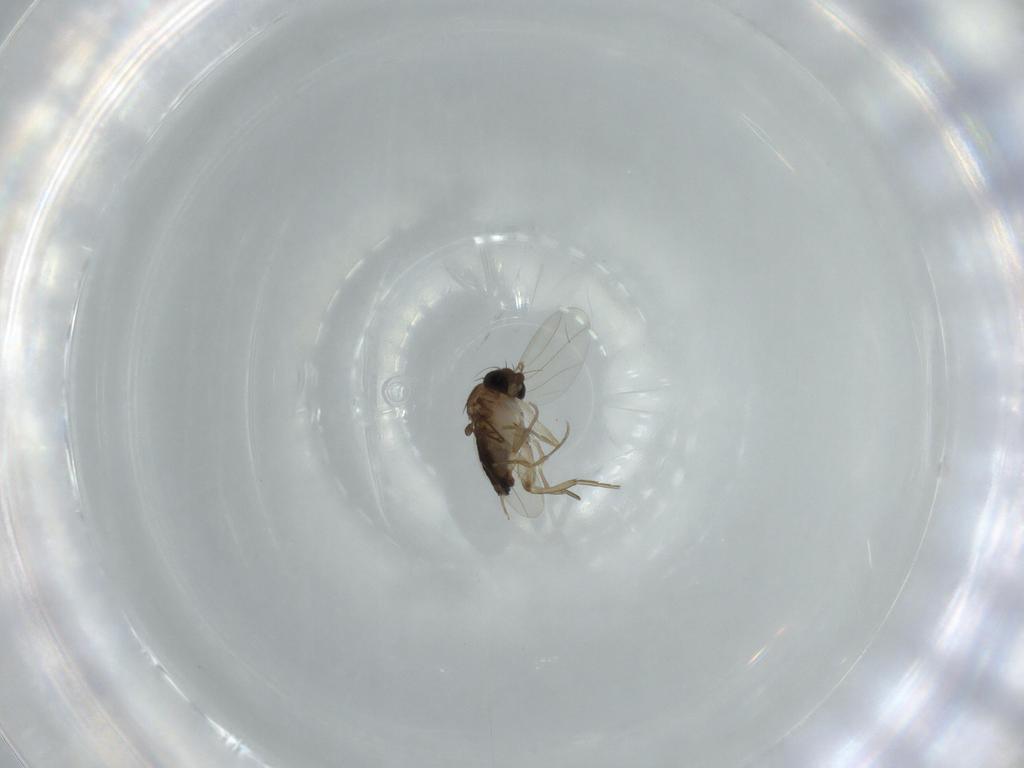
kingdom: Animalia
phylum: Arthropoda
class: Insecta
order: Diptera
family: Phoridae
